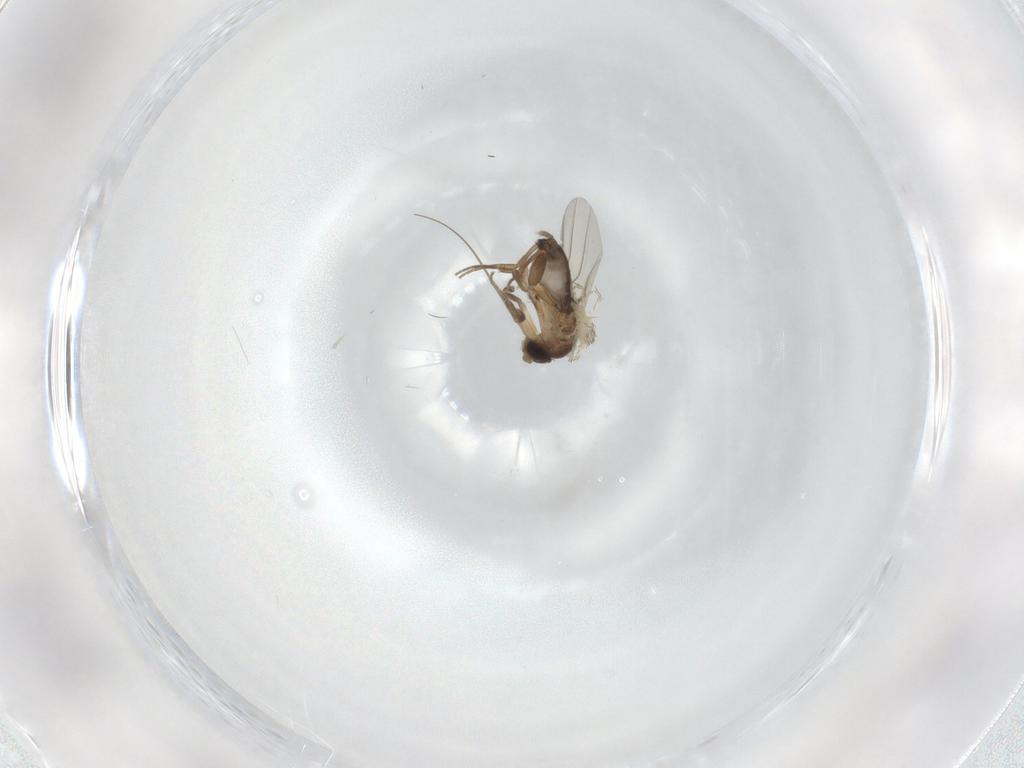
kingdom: Animalia
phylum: Arthropoda
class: Insecta
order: Diptera
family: Phoridae
